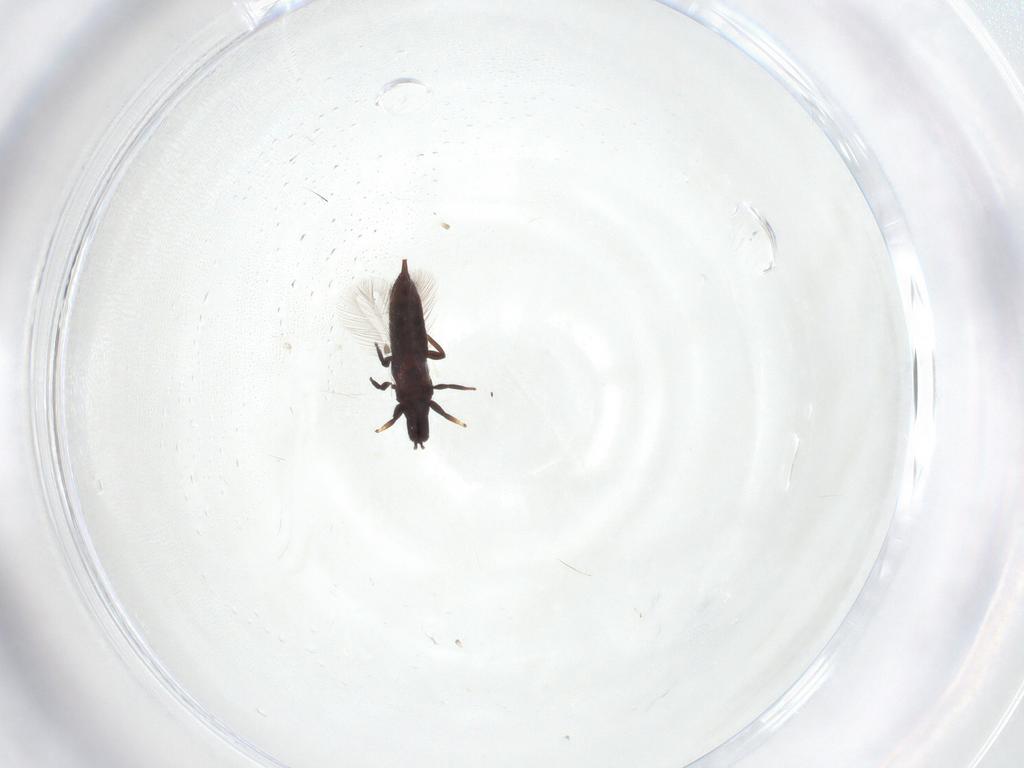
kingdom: Animalia
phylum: Arthropoda
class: Insecta
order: Thysanoptera
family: Phlaeothripidae
